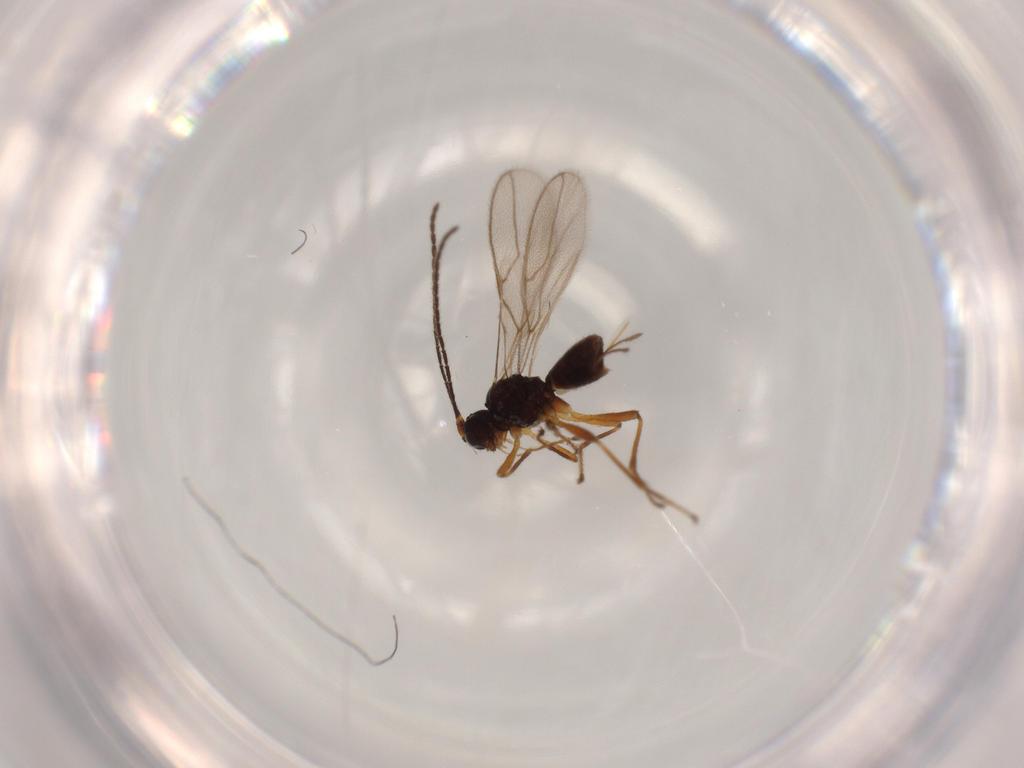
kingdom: Animalia
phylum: Arthropoda
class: Insecta
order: Hymenoptera
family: Braconidae
